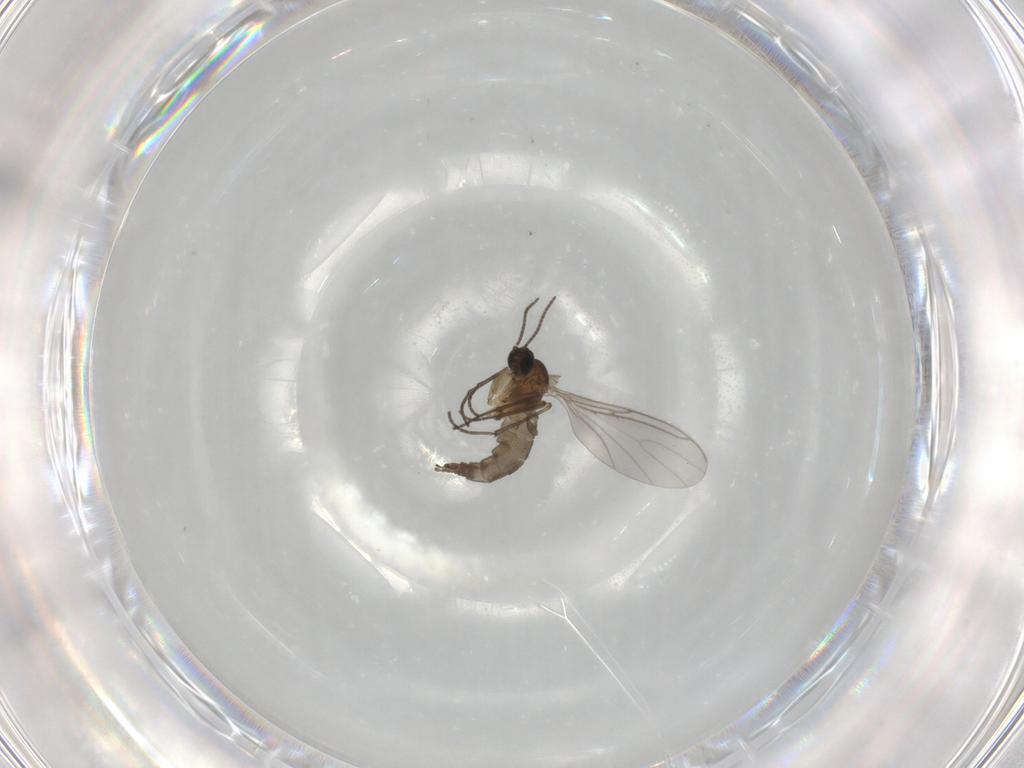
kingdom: Animalia
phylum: Arthropoda
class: Insecta
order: Diptera
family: Sciaridae
